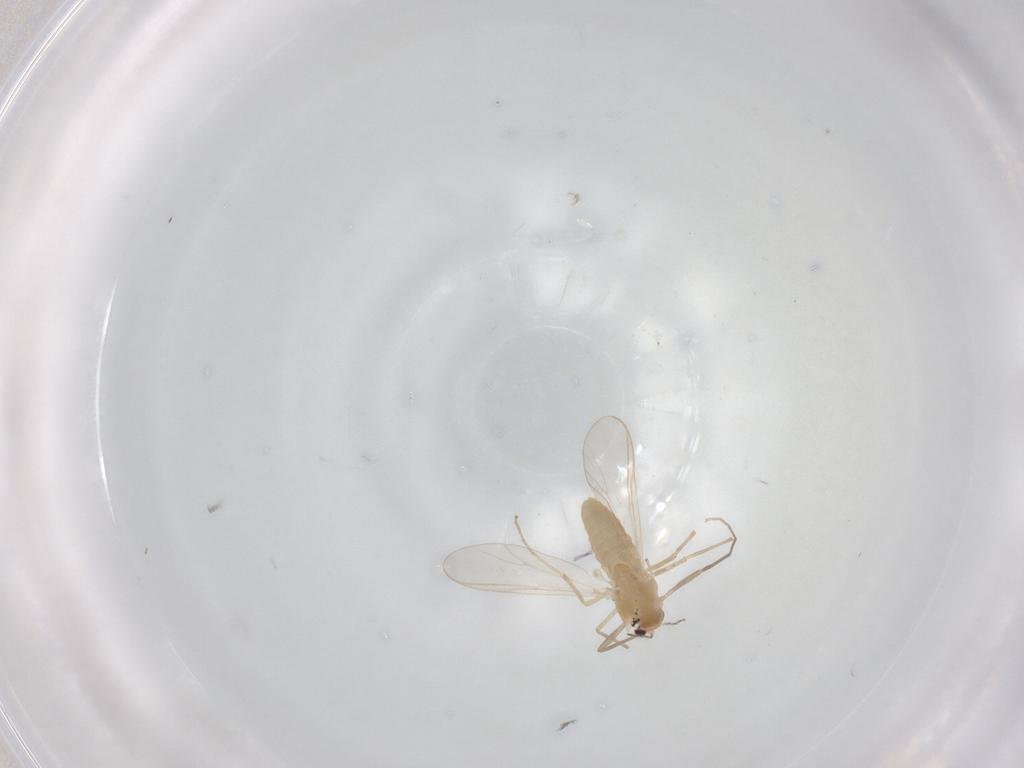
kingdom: Animalia
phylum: Arthropoda
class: Insecta
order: Diptera
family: Chironomidae
